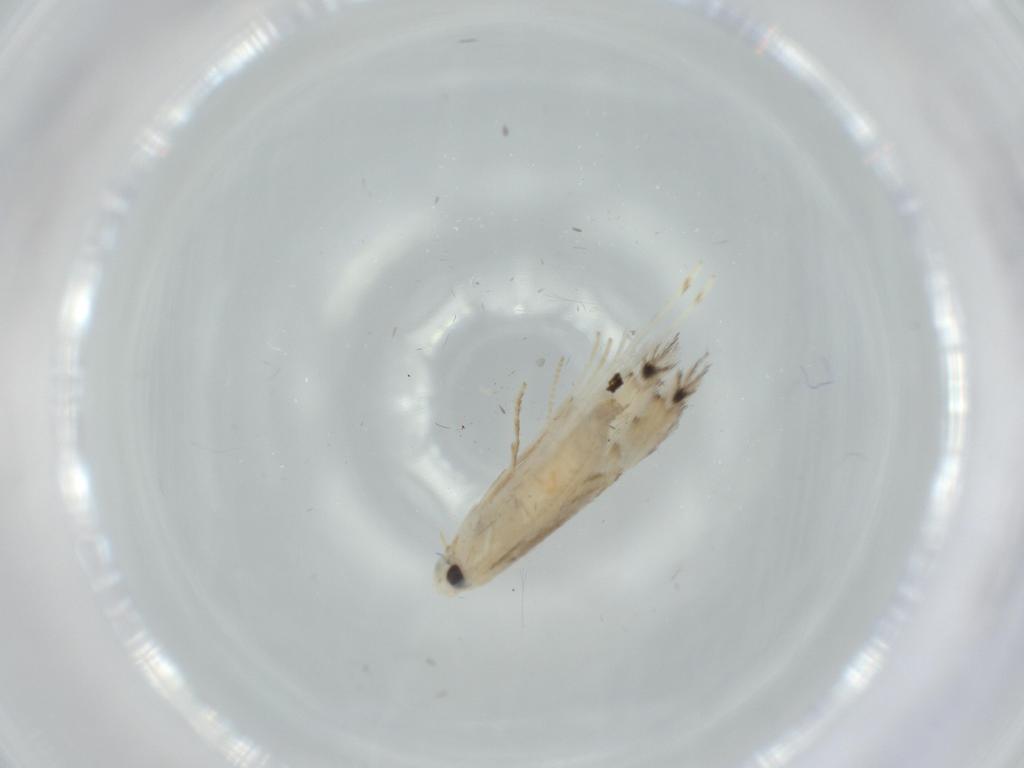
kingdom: Animalia
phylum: Arthropoda
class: Insecta
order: Lepidoptera
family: Gracillariidae
